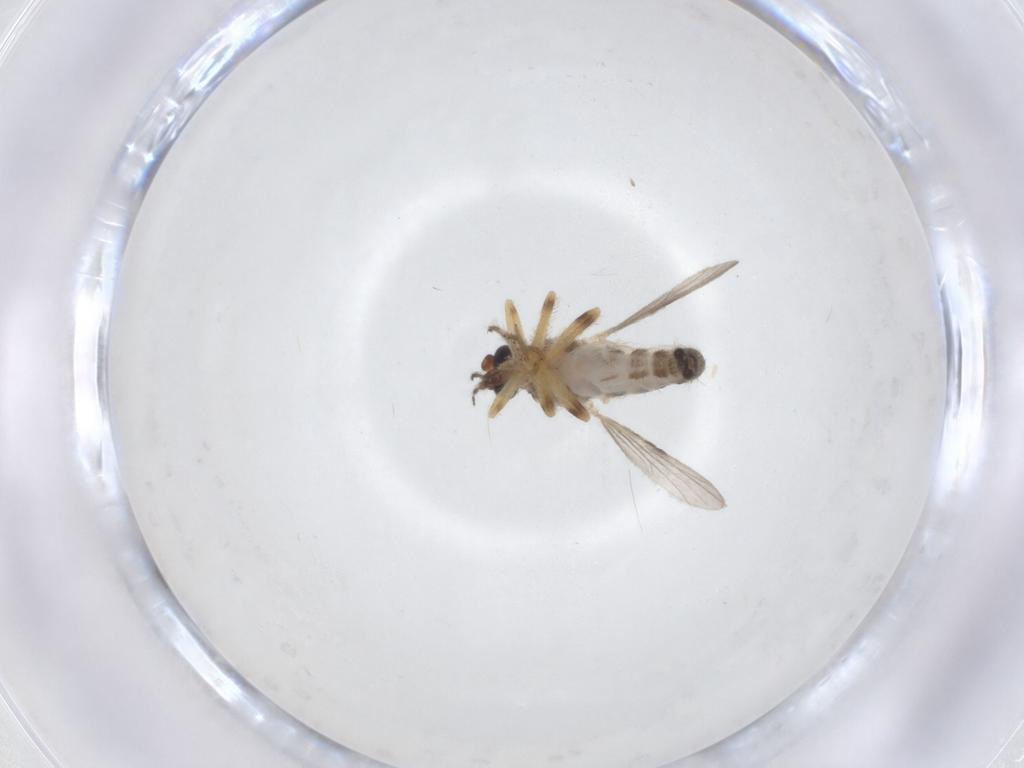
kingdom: Animalia
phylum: Arthropoda
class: Insecta
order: Diptera
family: Ceratopogonidae
